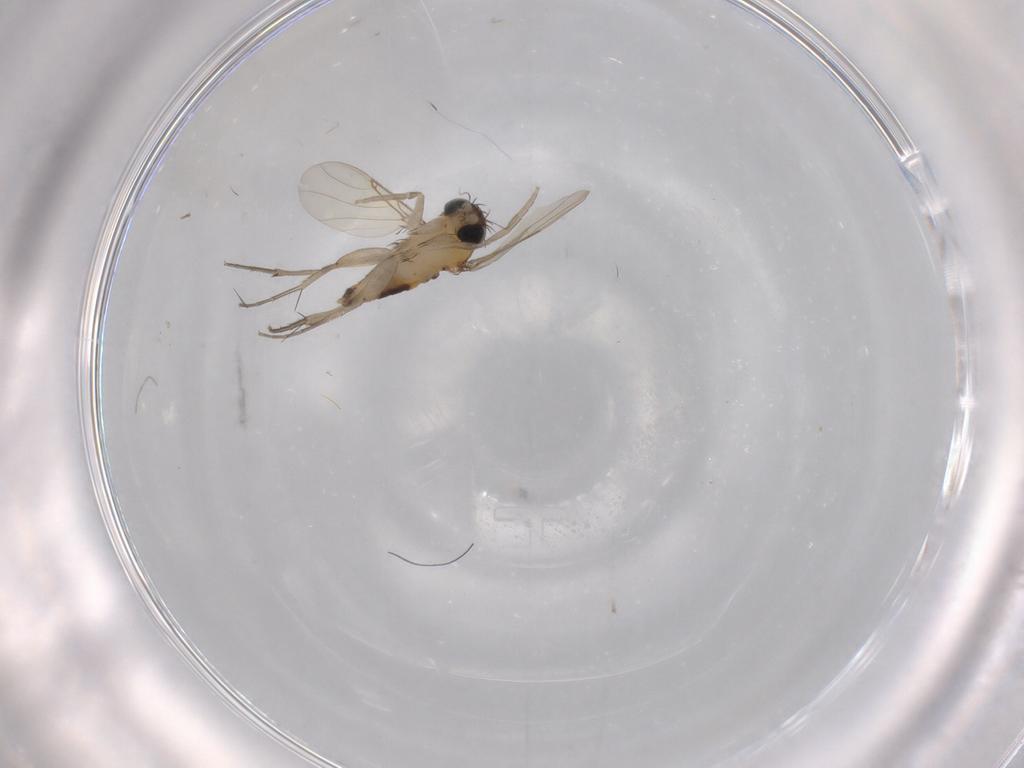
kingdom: Animalia
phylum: Arthropoda
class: Insecta
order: Diptera
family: Phoridae
